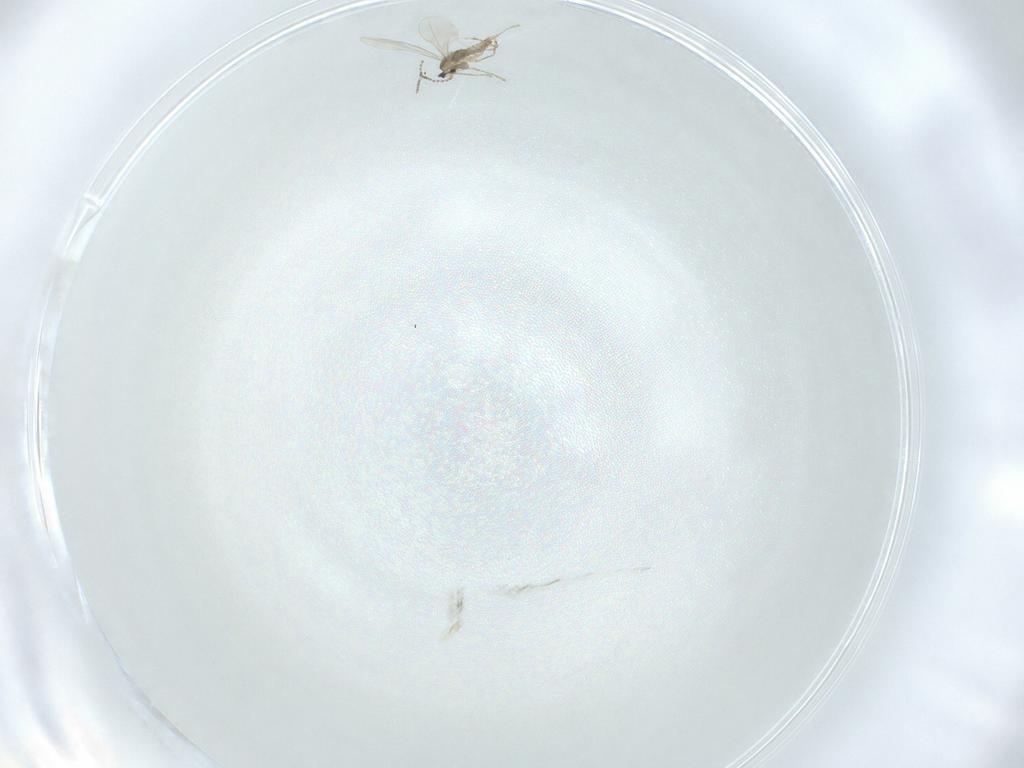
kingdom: Animalia
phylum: Arthropoda
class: Insecta
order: Diptera
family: Cecidomyiidae
